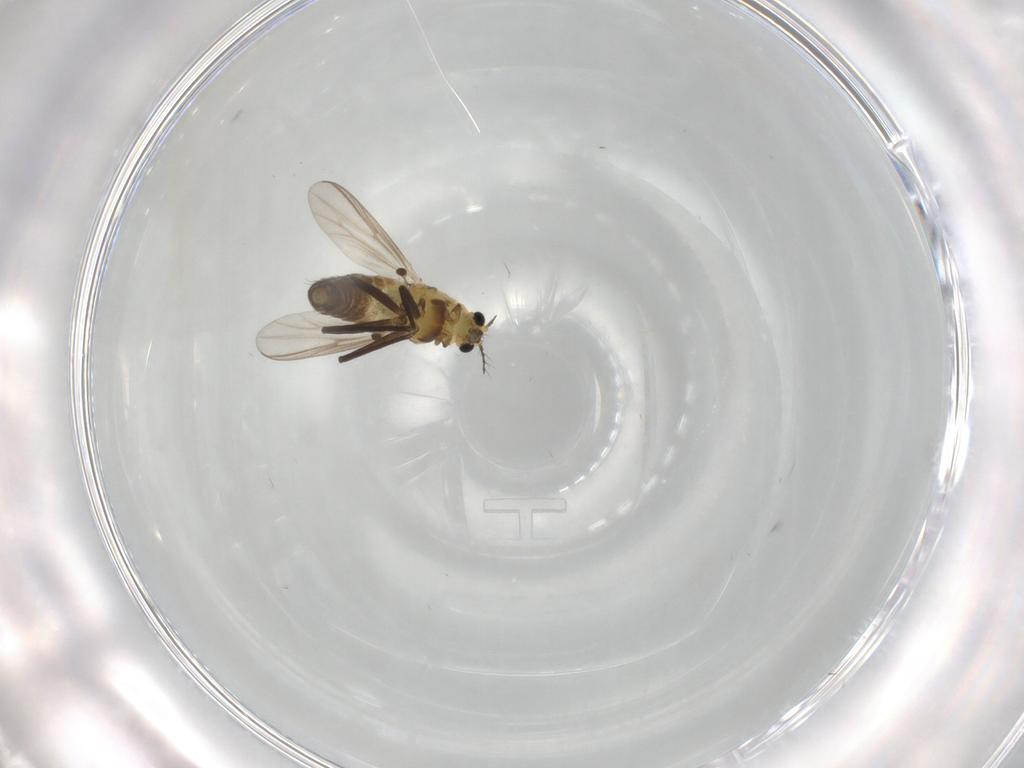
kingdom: Animalia
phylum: Arthropoda
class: Insecta
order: Diptera
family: Chironomidae
